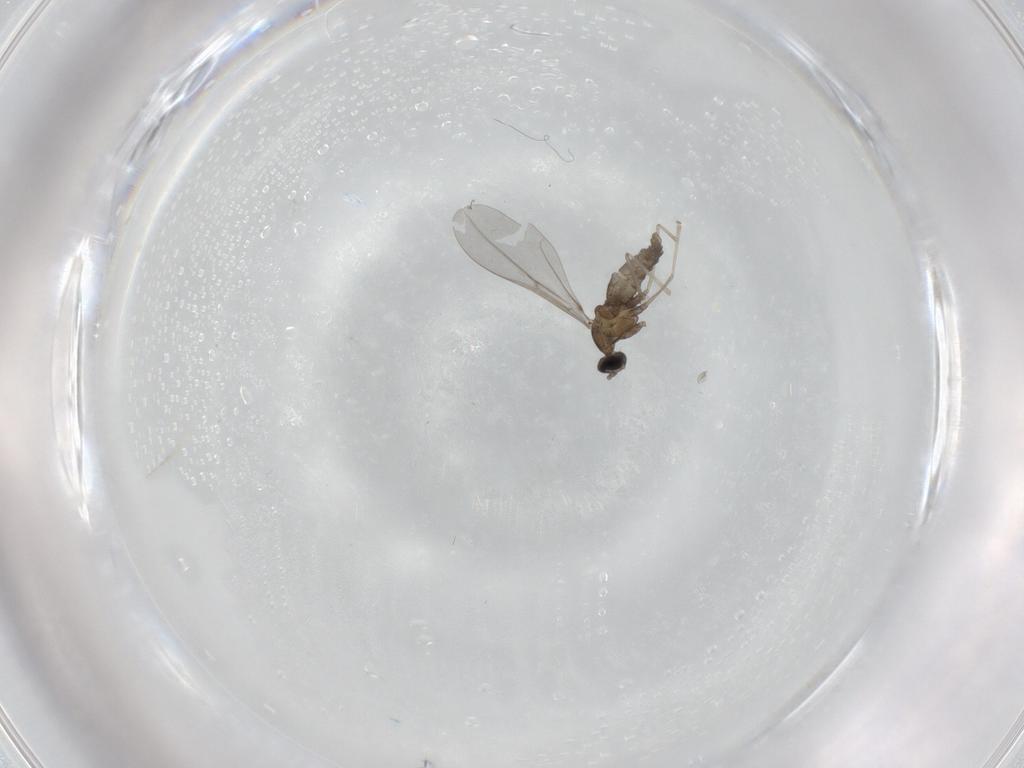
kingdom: Animalia
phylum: Arthropoda
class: Insecta
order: Diptera
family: Cecidomyiidae
